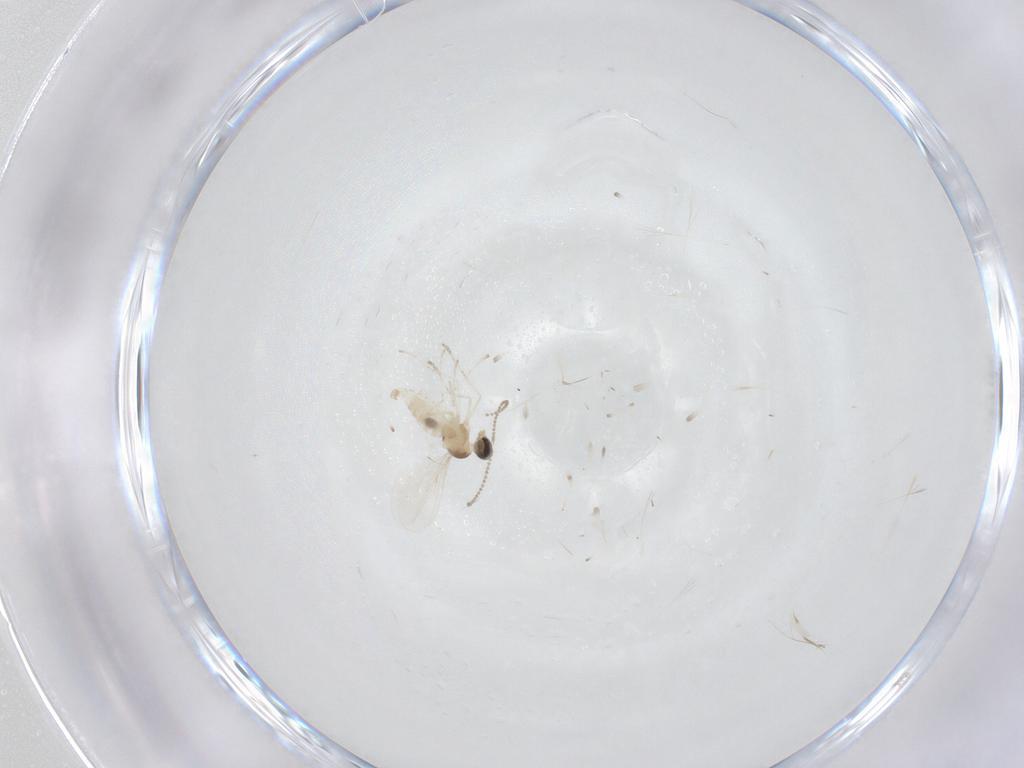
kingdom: Animalia
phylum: Arthropoda
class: Insecta
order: Diptera
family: Cecidomyiidae
